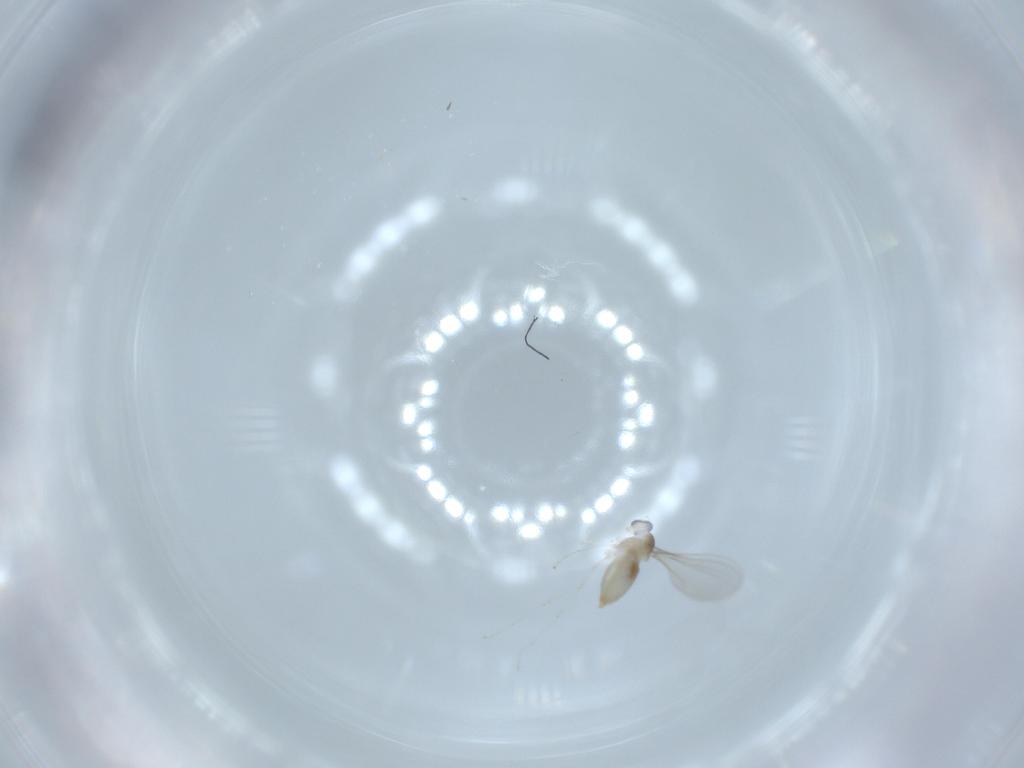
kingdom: Animalia
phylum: Arthropoda
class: Insecta
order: Diptera
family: Cecidomyiidae
